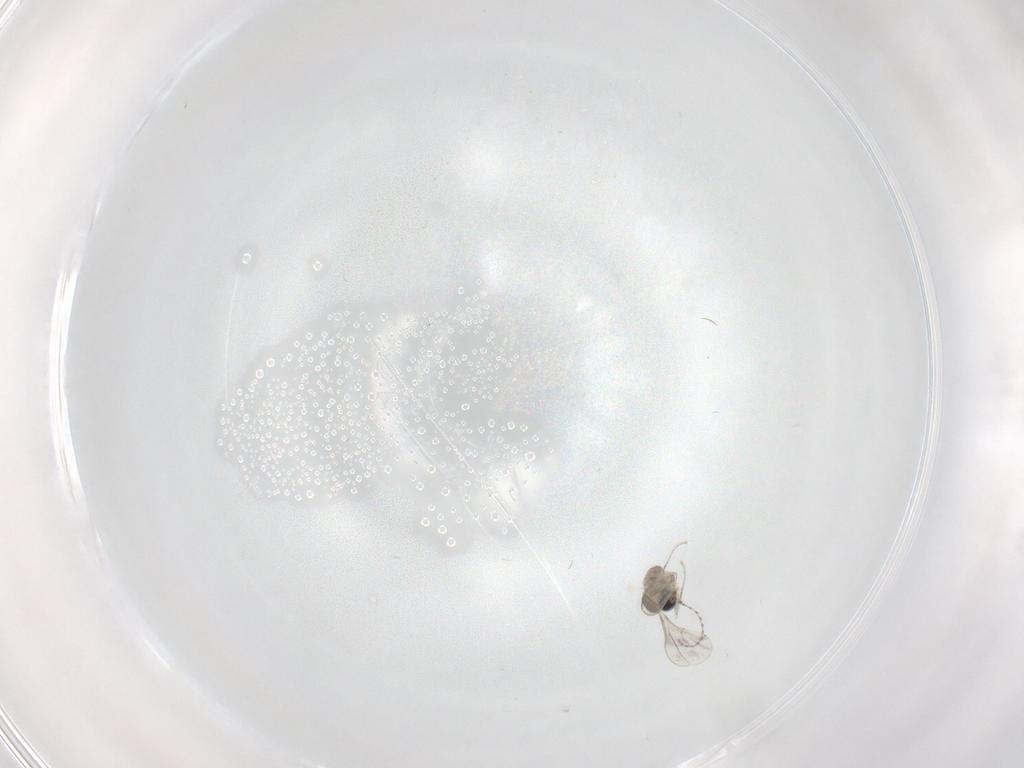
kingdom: Animalia
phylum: Arthropoda
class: Insecta
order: Diptera
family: Cecidomyiidae
